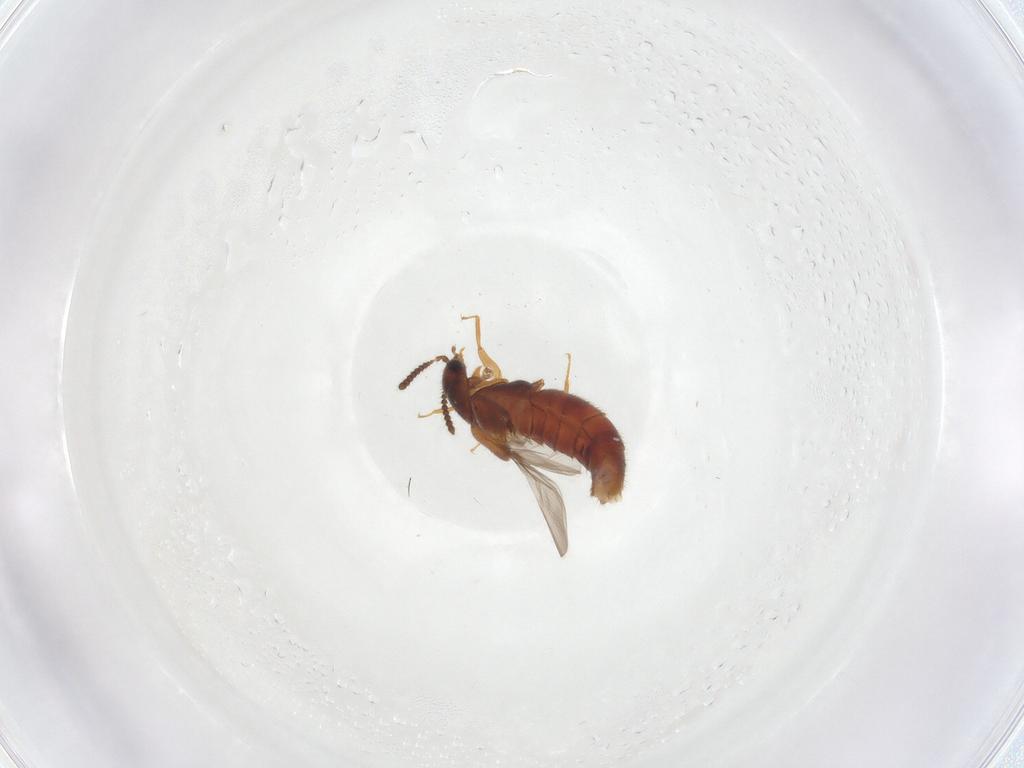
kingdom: Animalia
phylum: Arthropoda
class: Insecta
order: Coleoptera
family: Staphylinidae
